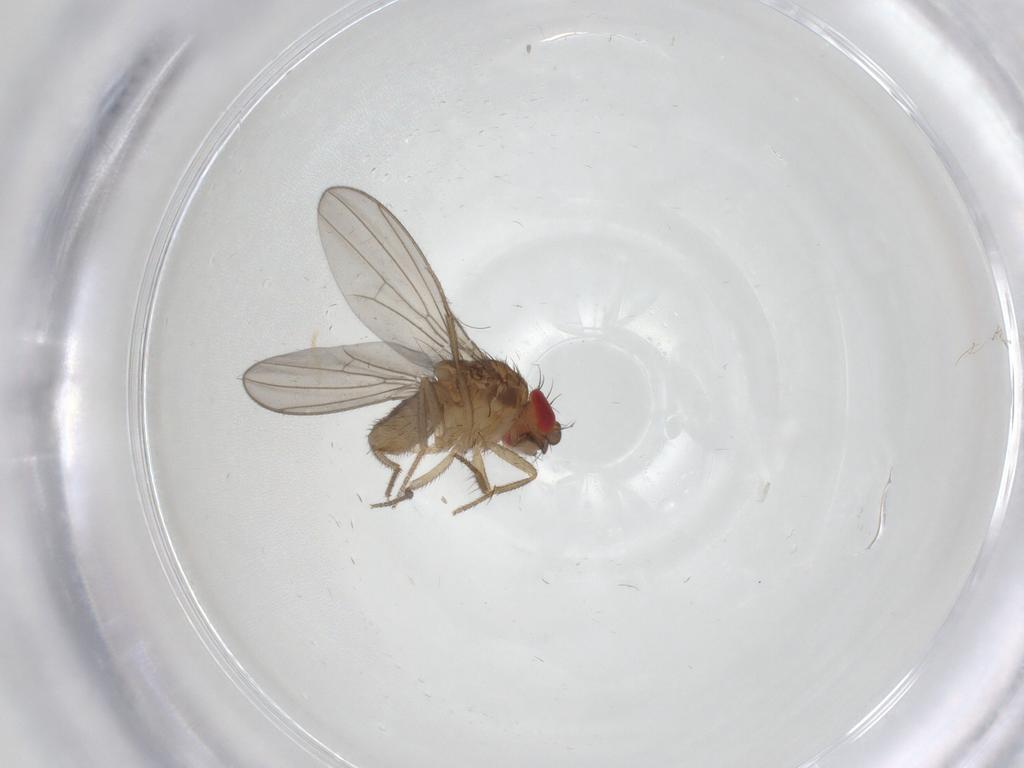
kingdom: Animalia
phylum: Arthropoda
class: Insecta
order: Diptera
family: Drosophilidae
